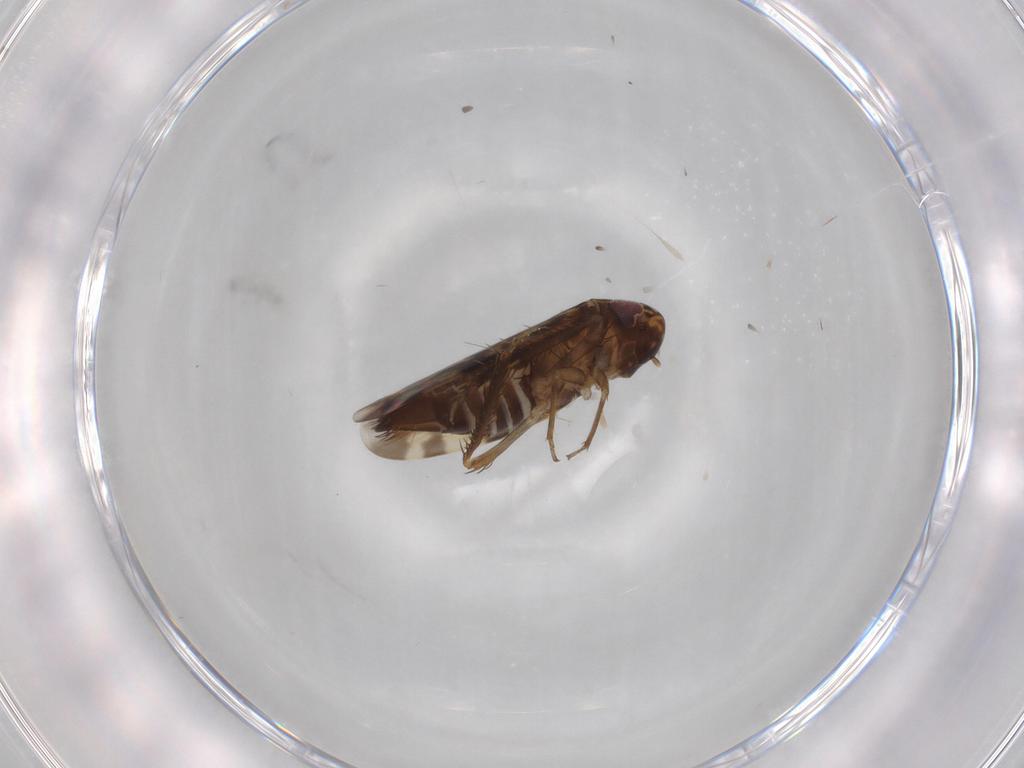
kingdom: Animalia
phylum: Arthropoda
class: Insecta
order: Hemiptera
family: Cicadellidae
